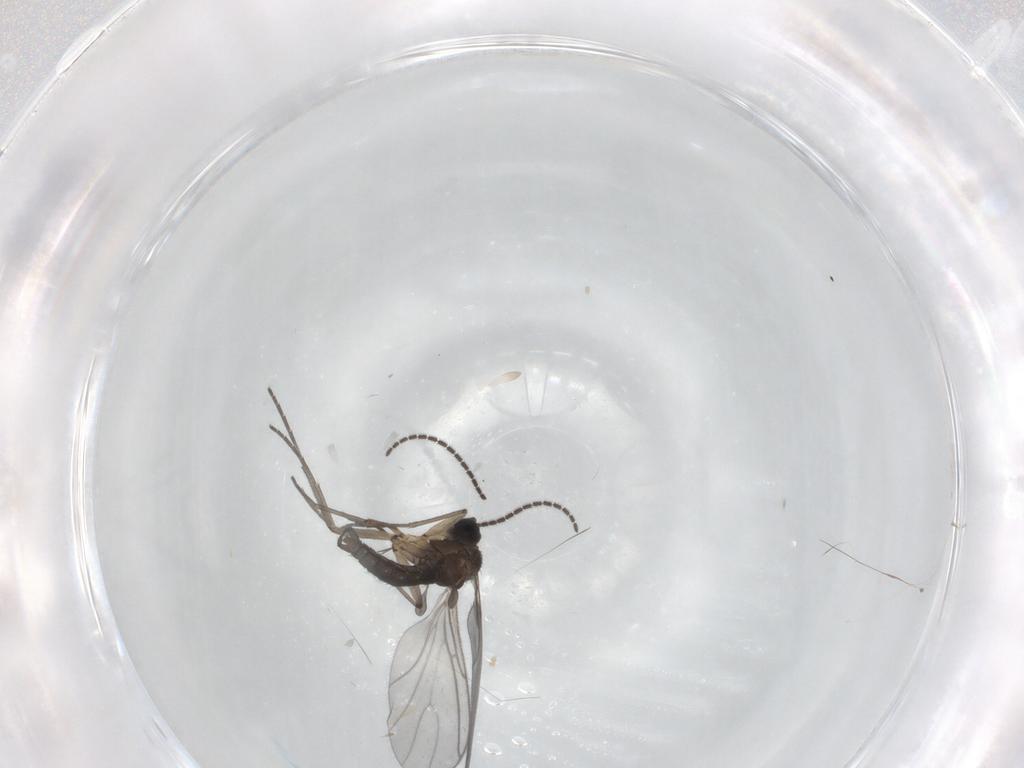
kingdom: Animalia
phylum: Arthropoda
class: Insecta
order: Diptera
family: Sciaridae
